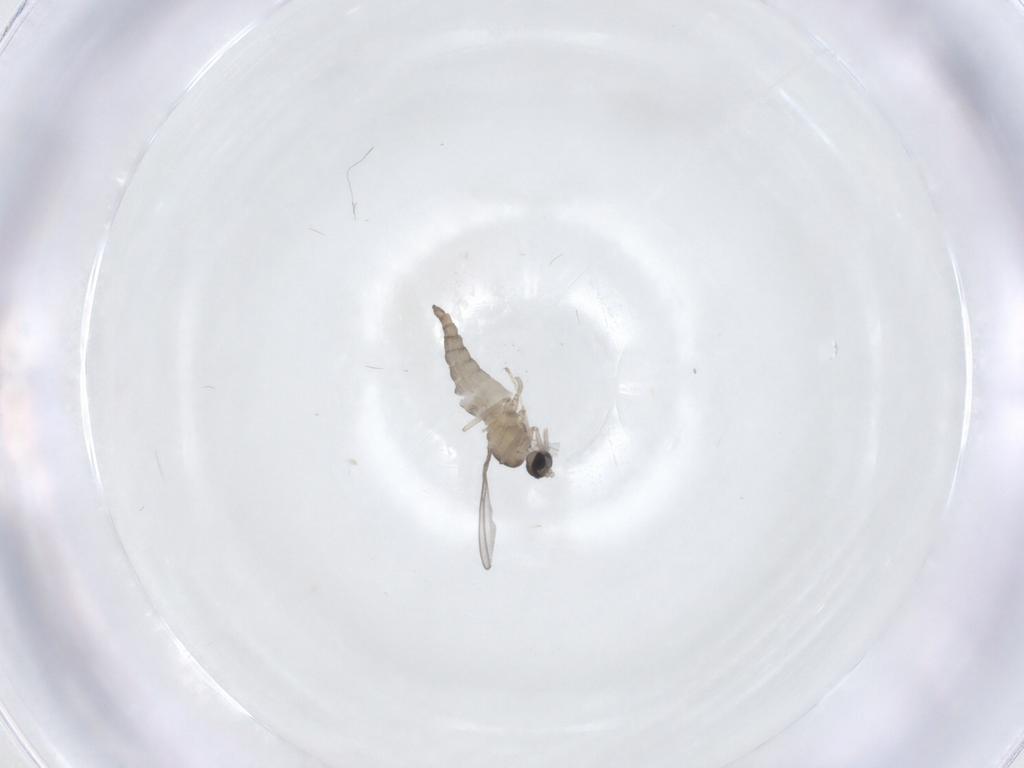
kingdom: Animalia
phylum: Arthropoda
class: Insecta
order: Diptera
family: Cecidomyiidae
